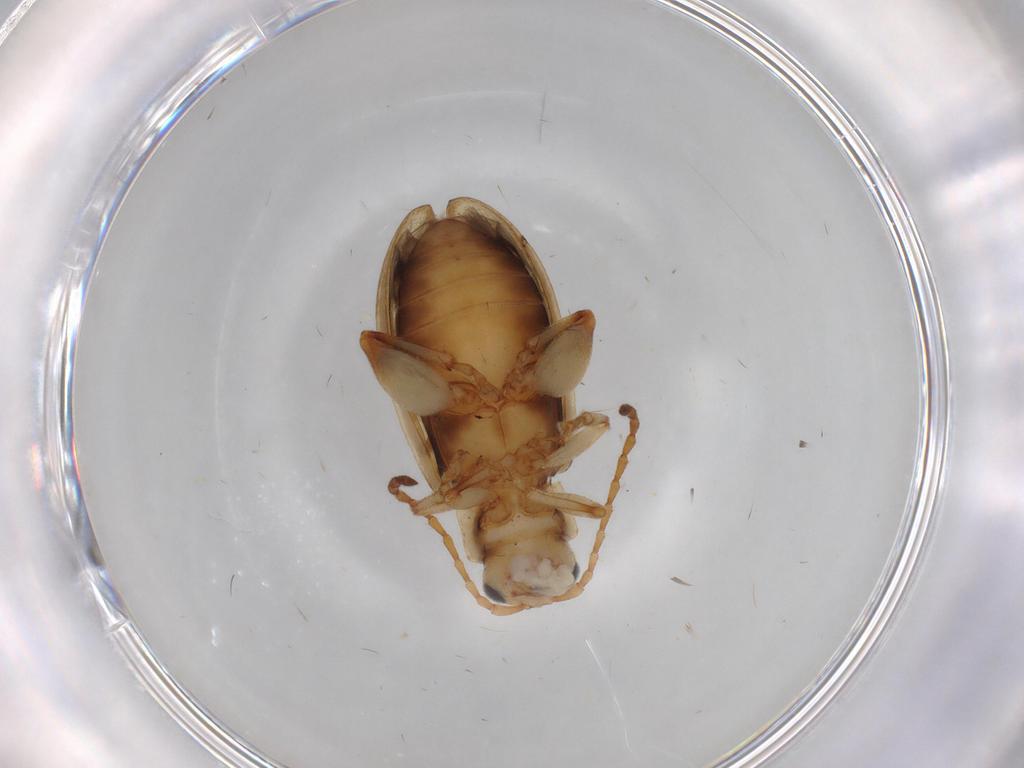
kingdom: Animalia
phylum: Arthropoda
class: Insecta
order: Coleoptera
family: Chrysomelidae
